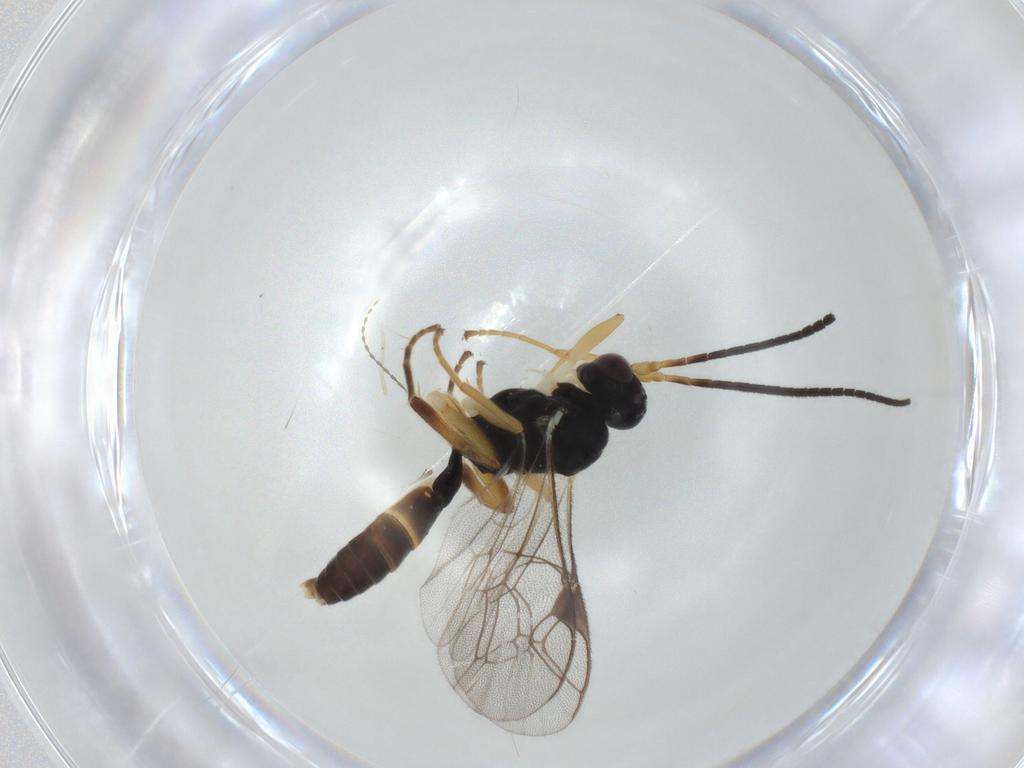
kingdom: Animalia
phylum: Arthropoda
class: Insecta
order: Hymenoptera
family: Ichneumonidae
